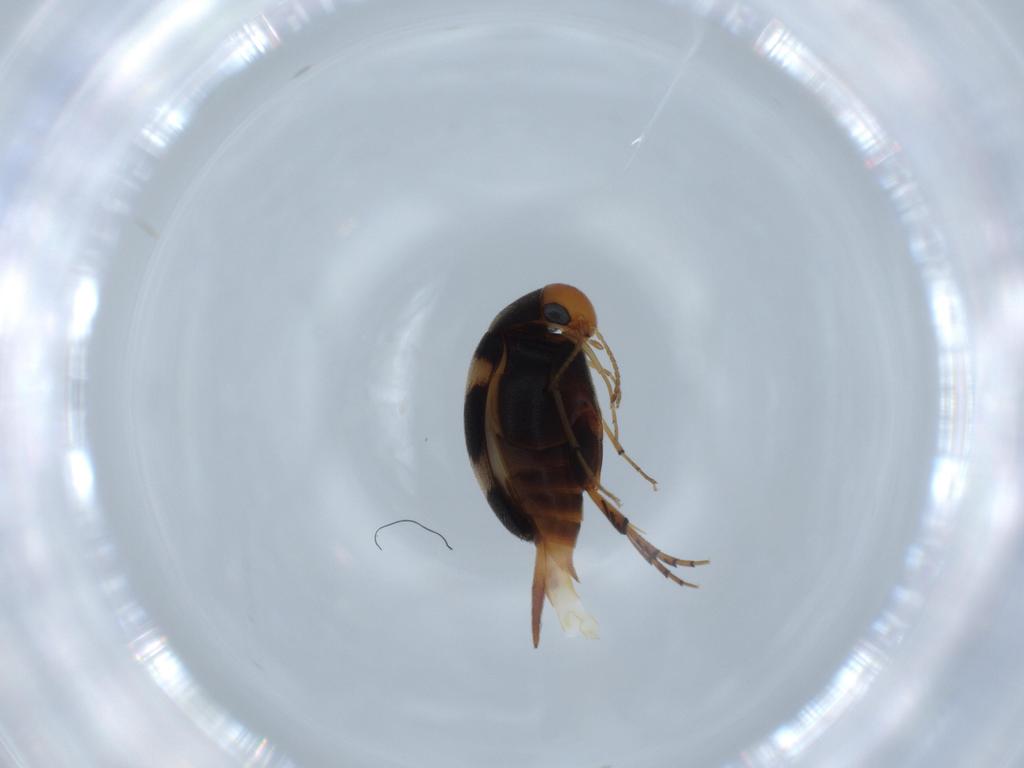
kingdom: Animalia
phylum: Arthropoda
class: Insecta
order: Coleoptera
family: Mordellidae
